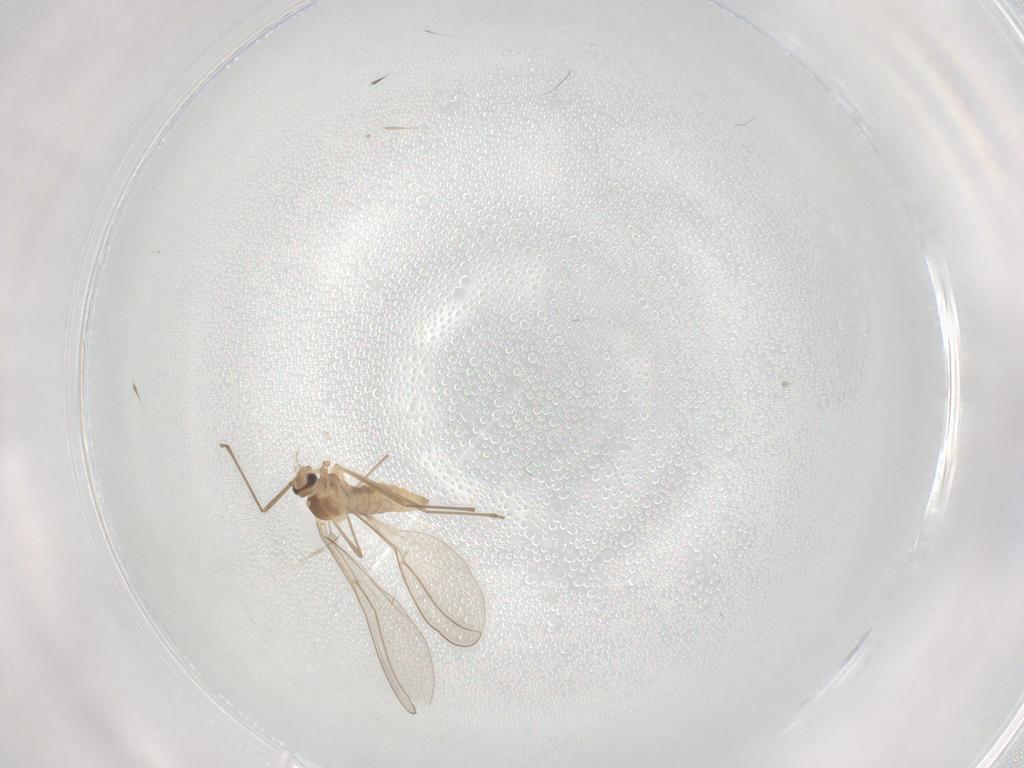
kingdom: Animalia
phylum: Arthropoda
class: Insecta
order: Diptera
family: Cecidomyiidae
